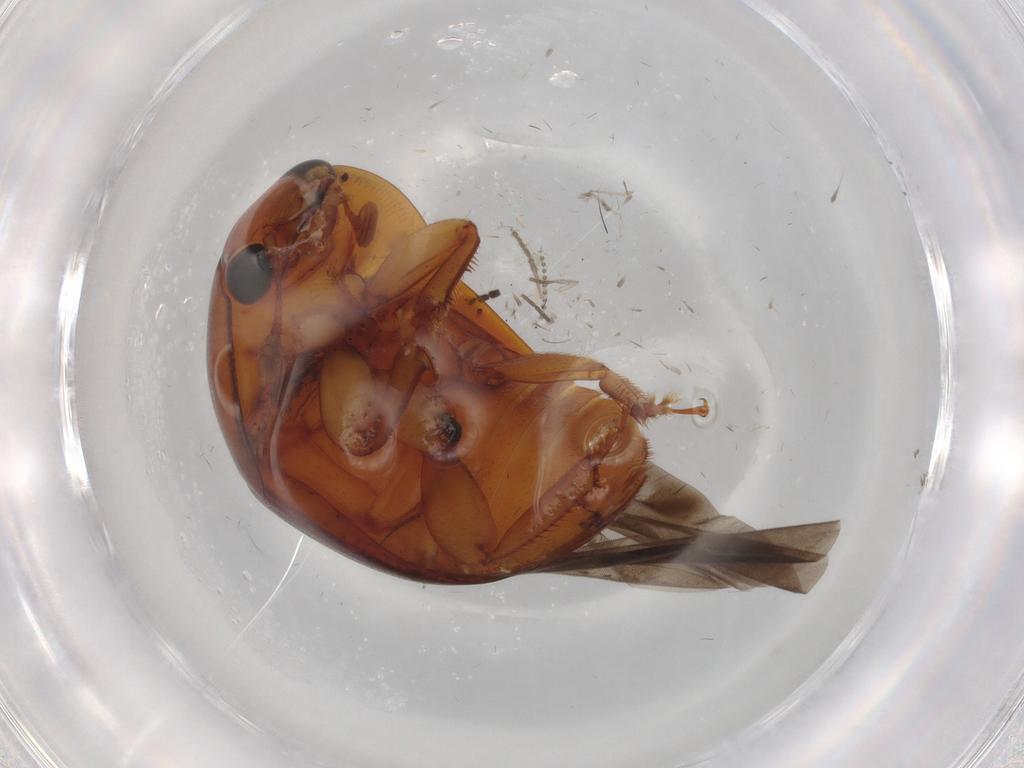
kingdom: Animalia
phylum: Arthropoda
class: Insecta
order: Coleoptera
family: Nitidulidae
